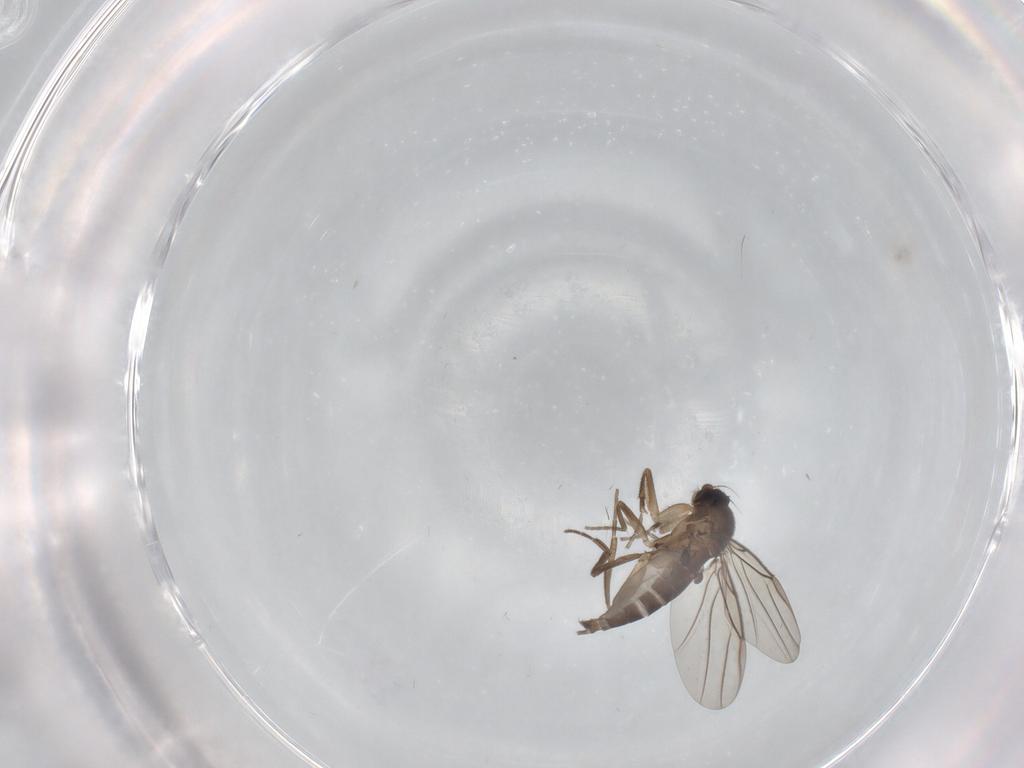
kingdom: Animalia
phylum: Arthropoda
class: Insecta
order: Diptera
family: Phoridae
